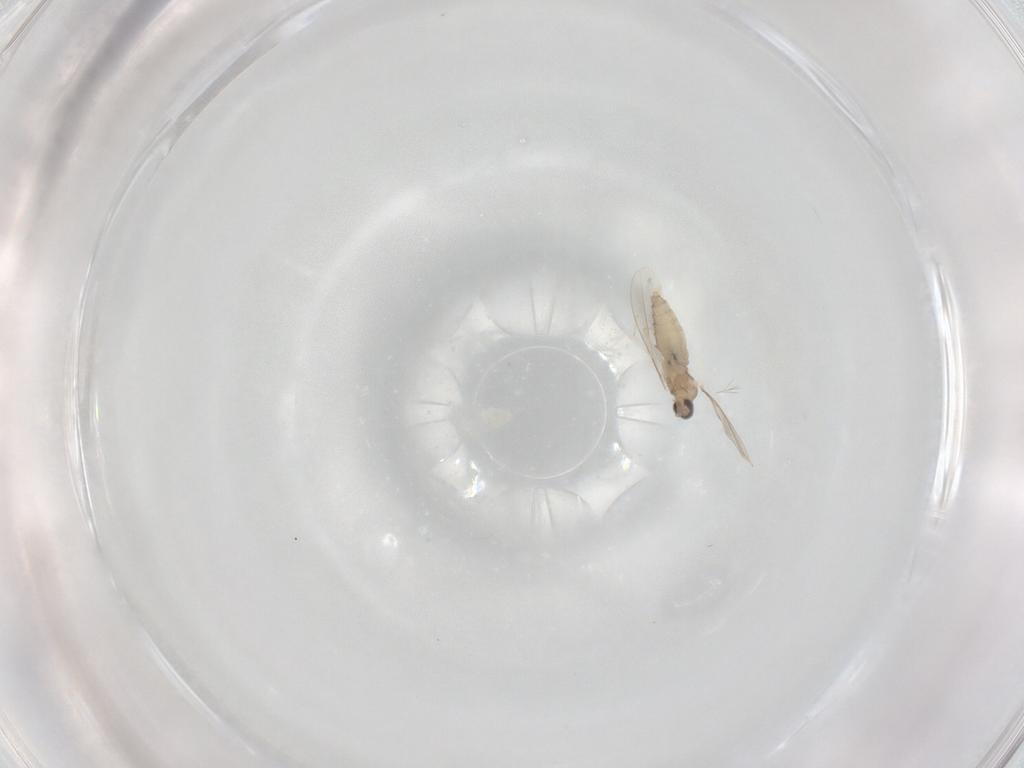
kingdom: Animalia
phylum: Arthropoda
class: Insecta
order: Diptera
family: Cecidomyiidae
